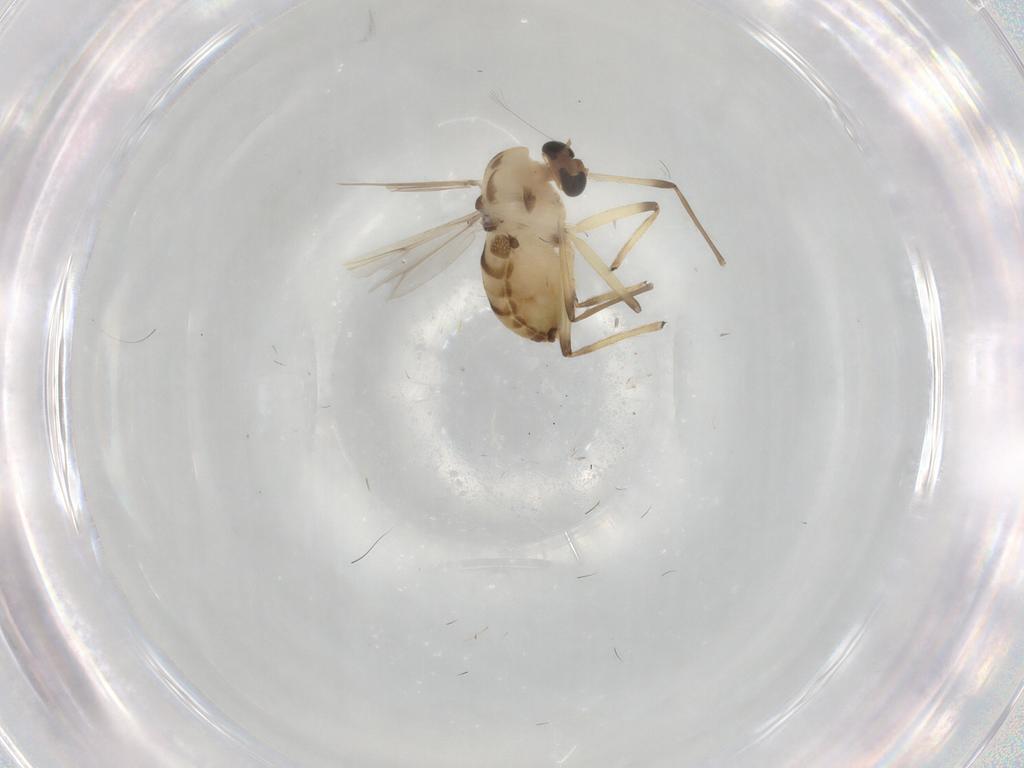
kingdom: Animalia
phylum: Arthropoda
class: Insecta
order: Diptera
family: Chironomidae
